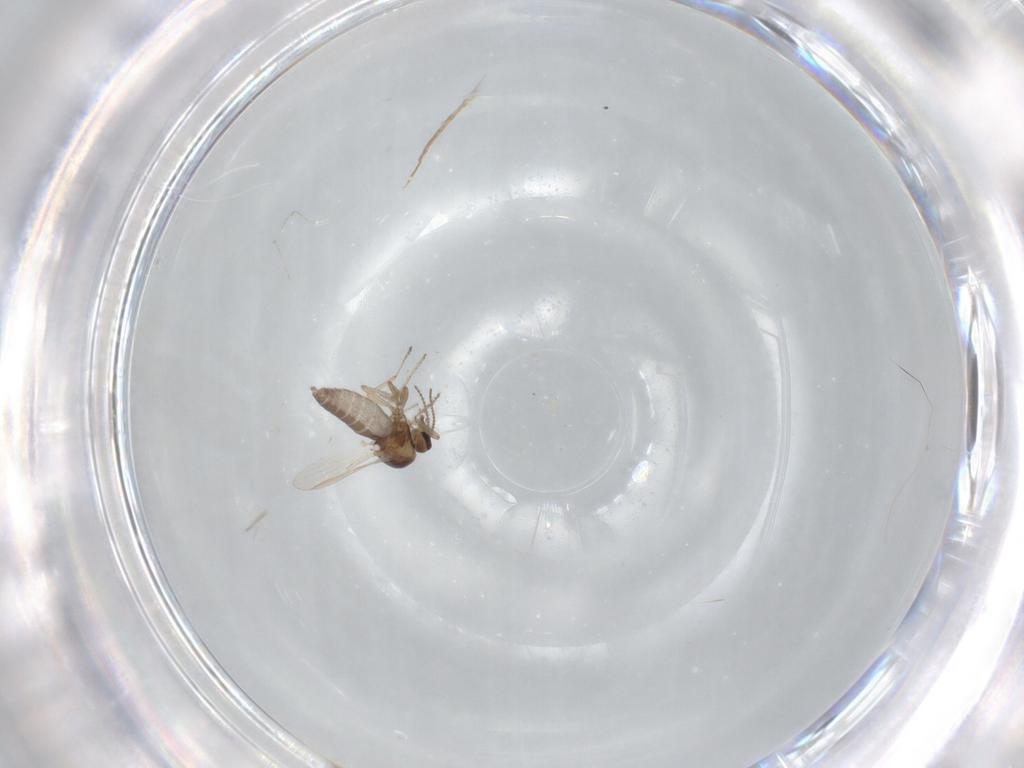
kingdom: Animalia
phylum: Arthropoda
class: Insecta
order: Diptera
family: Ceratopogonidae
